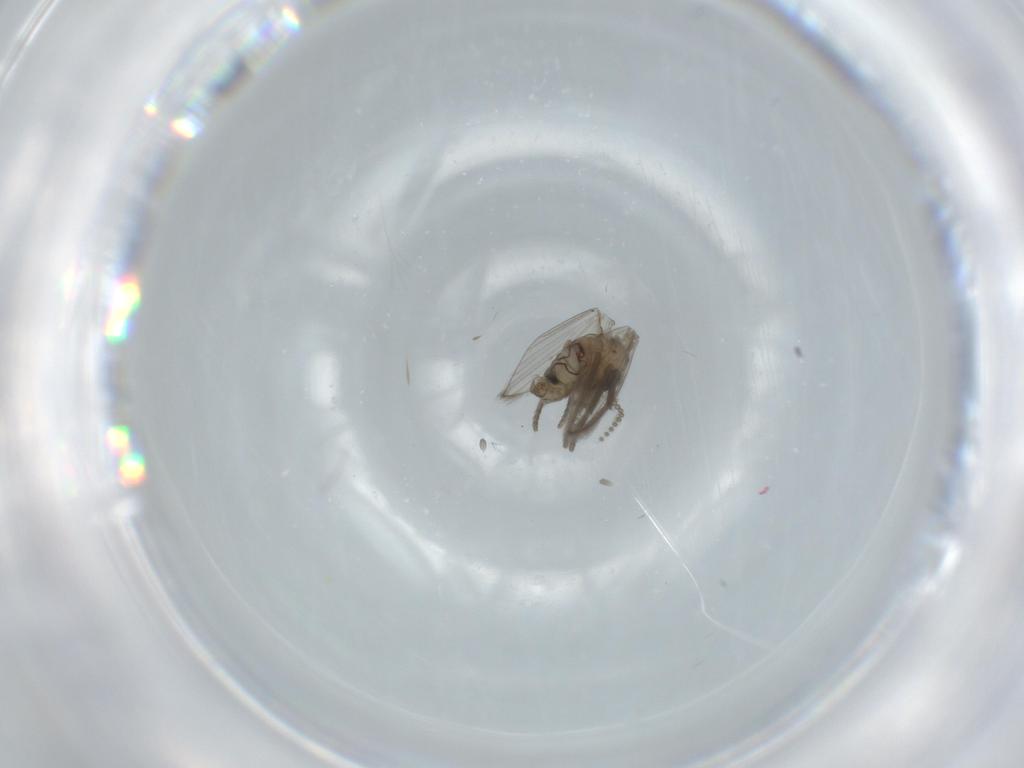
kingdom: Animalia
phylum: Arthropoda
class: Insecta
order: Diptera
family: Psychodidae
